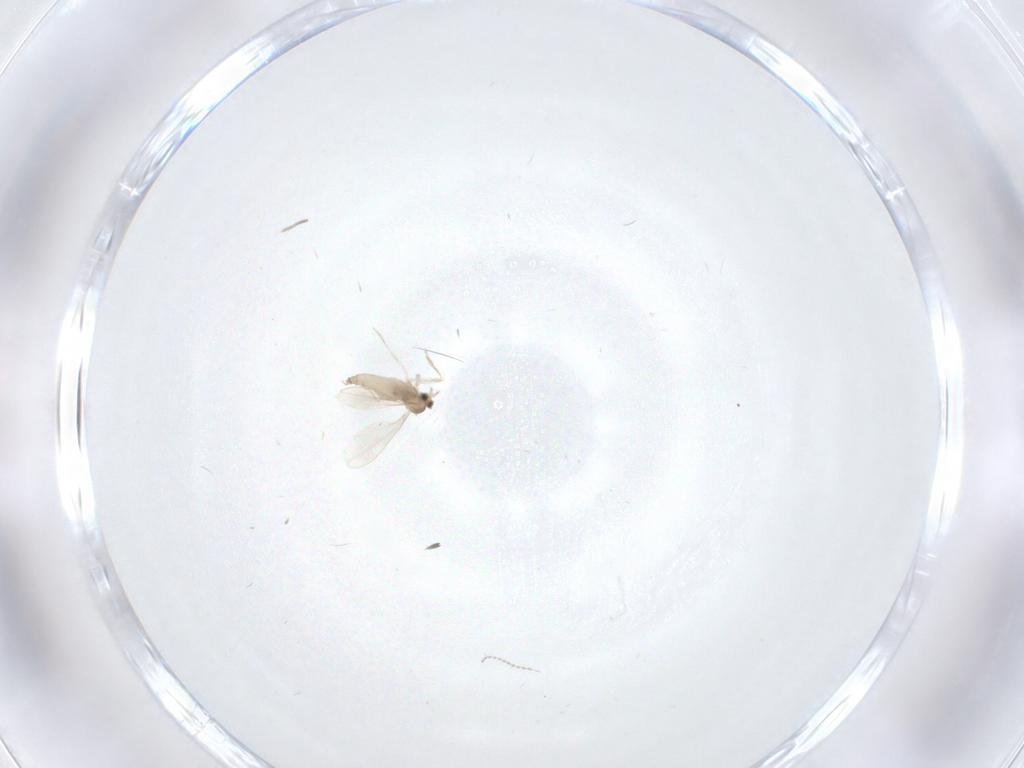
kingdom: Animalia
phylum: Arthropoda
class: Insecta
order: Diptera
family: Cecidomyiidae
